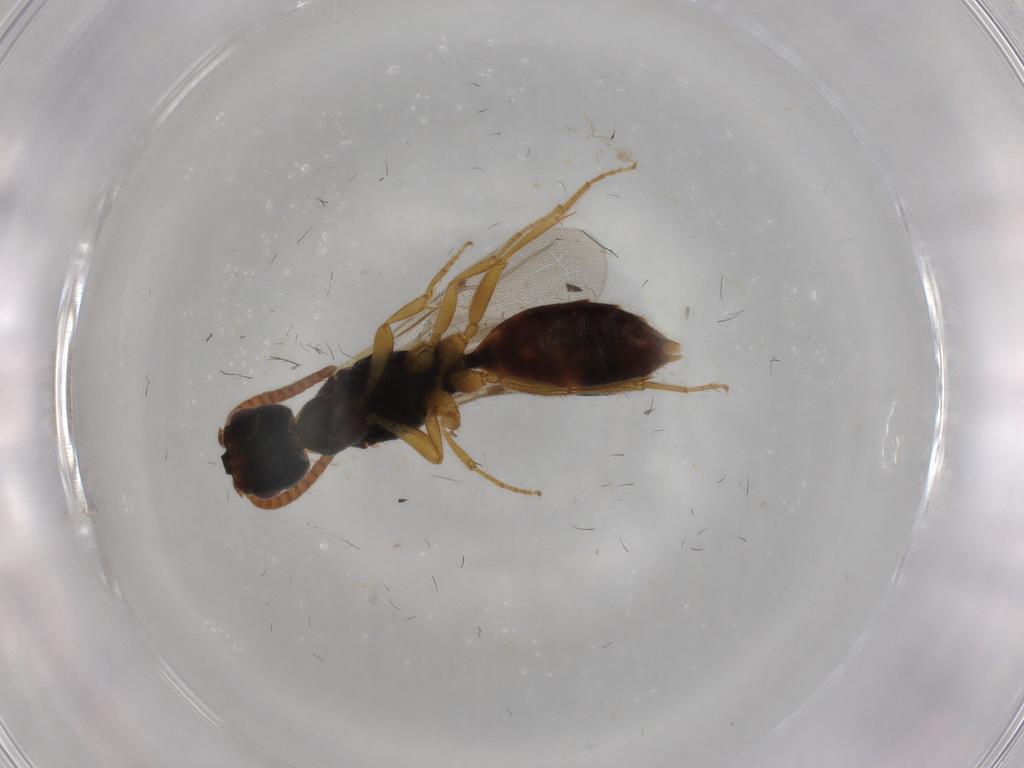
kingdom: Animalia
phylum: Arthropoda
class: Insecta
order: Hymenoptera
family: Bethylidae
